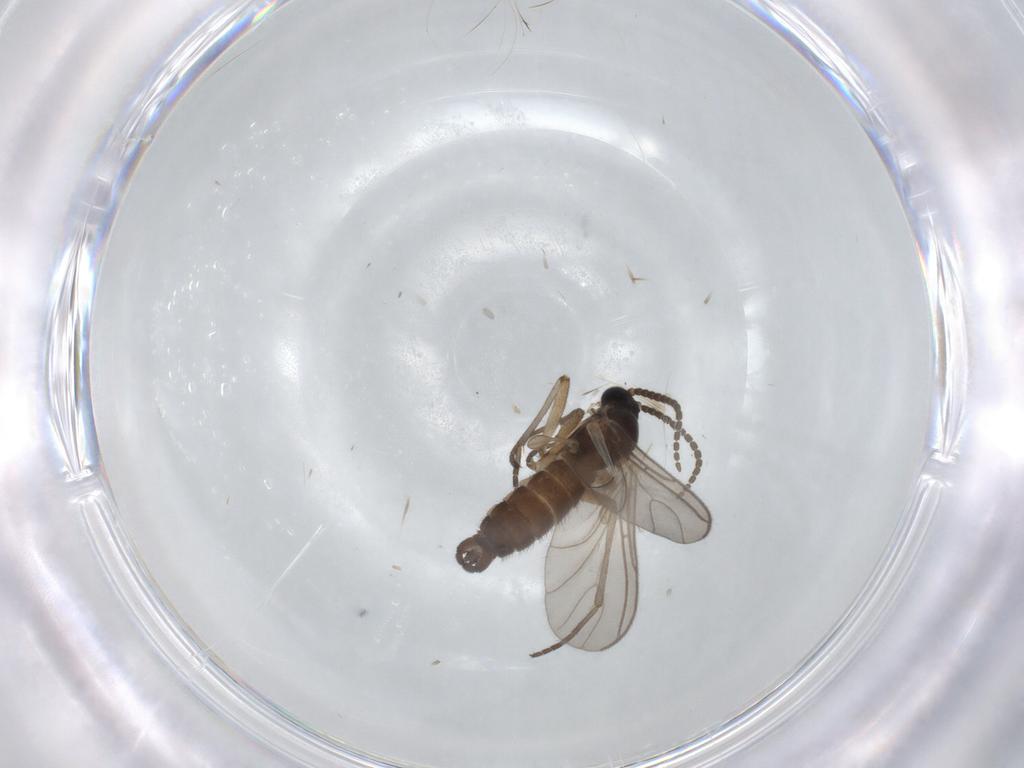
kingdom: Animalia
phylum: Arthropoda
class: Insecta
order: Diptera
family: Sciaridae
